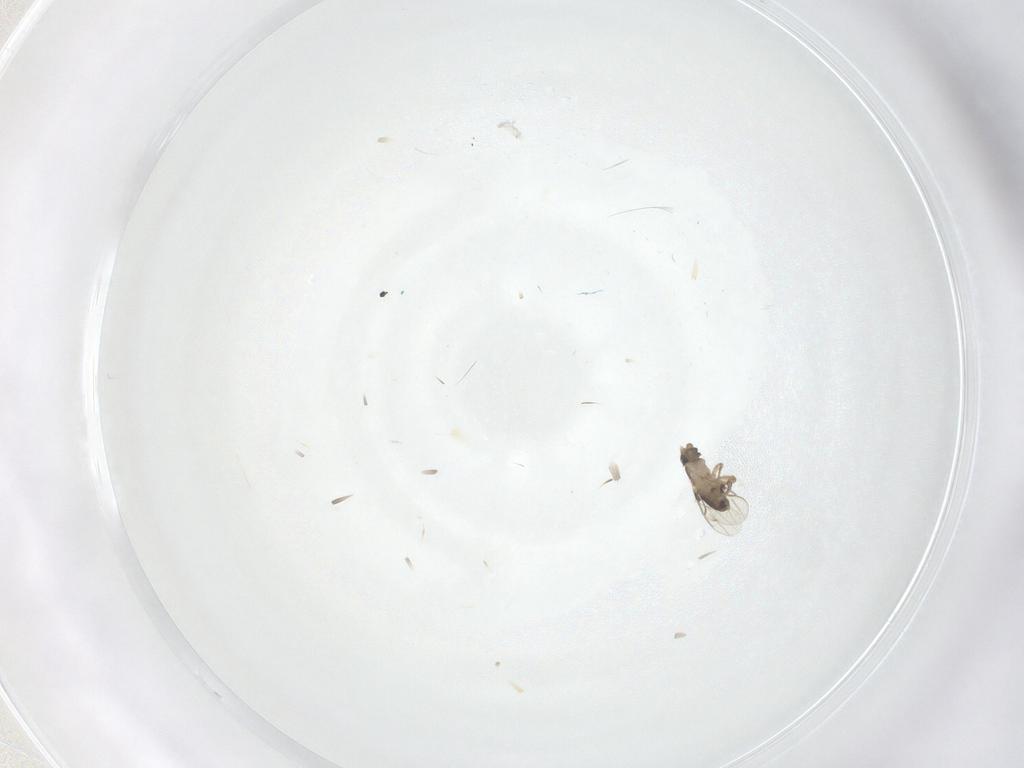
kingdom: Animalia
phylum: Arthropoda
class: Insecta
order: Diptera
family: Phoridae
